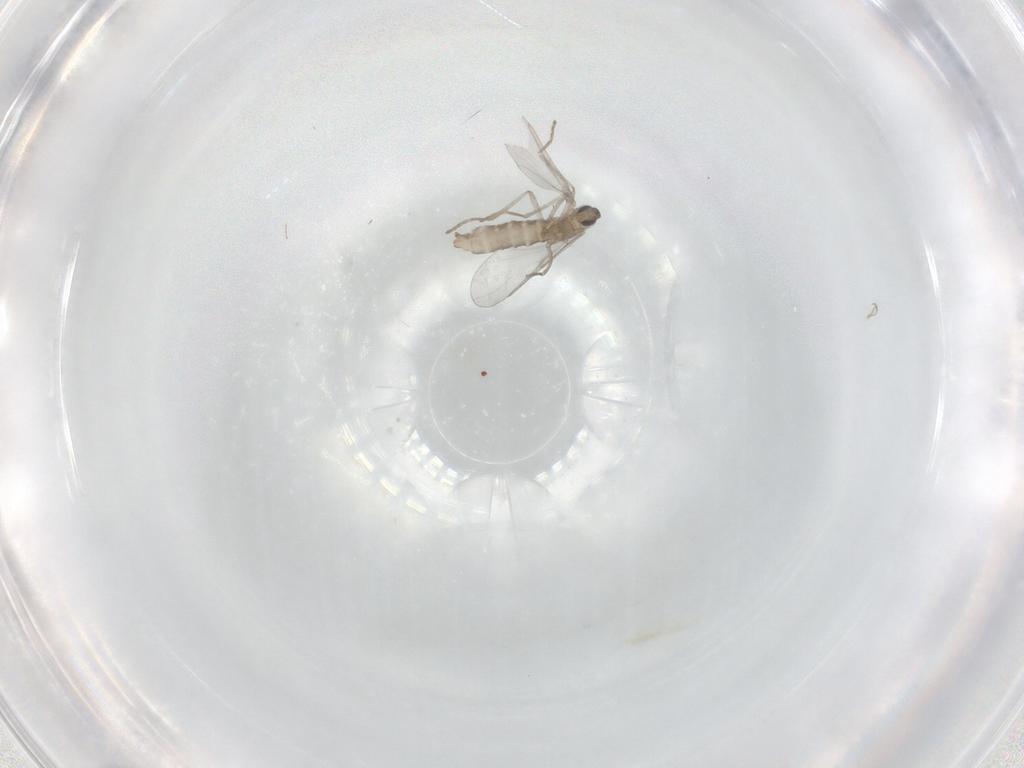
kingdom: Animalia
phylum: Arthropoda
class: Insecta
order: Diptera
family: Cecidomyiidae
